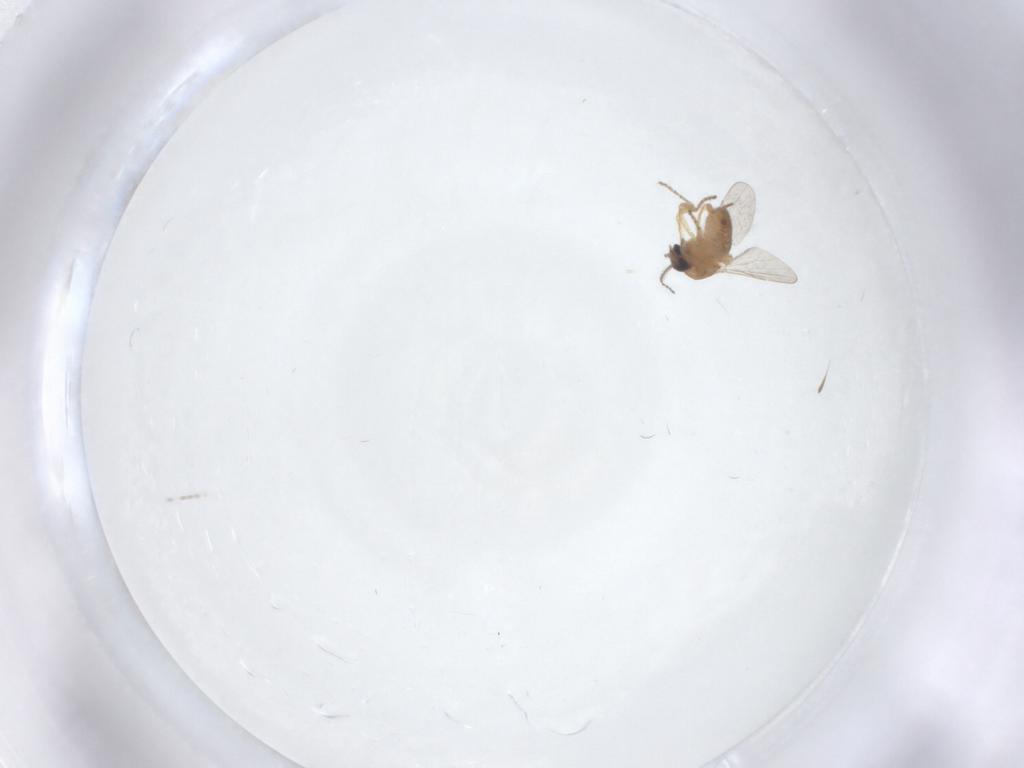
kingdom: Animalia
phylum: Arthropoda
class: Insecta
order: Diptera
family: Ceratopogonidae
